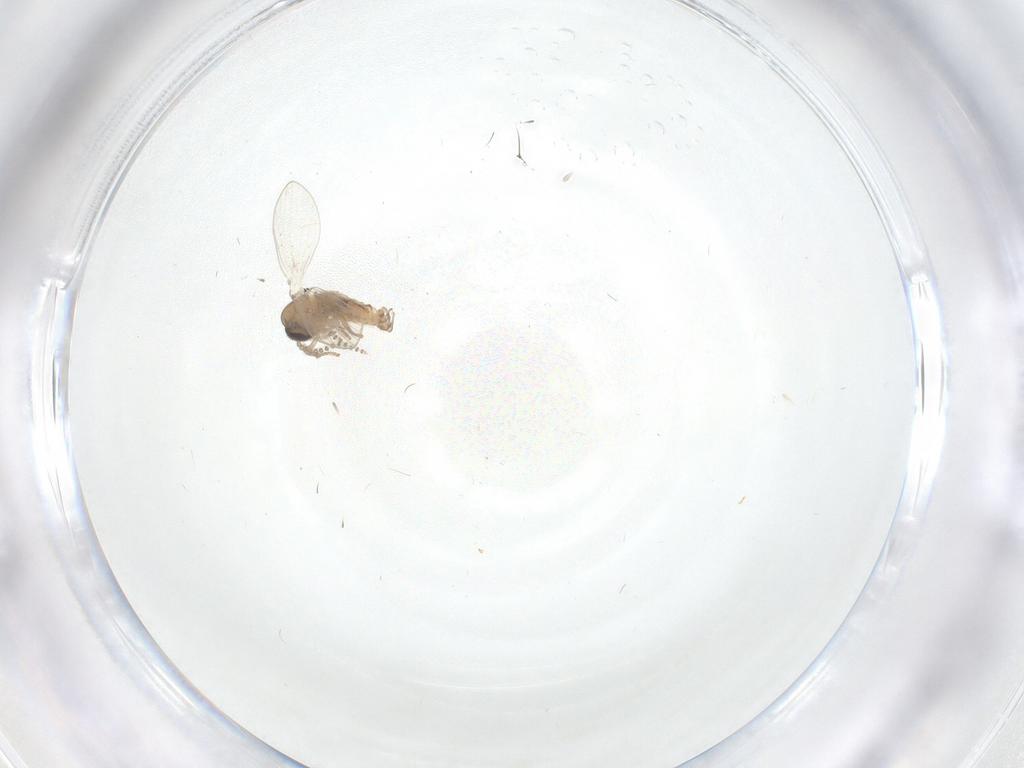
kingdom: Animalia
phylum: Arthropoda
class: Insecta
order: Diptera
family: Psychodidae
